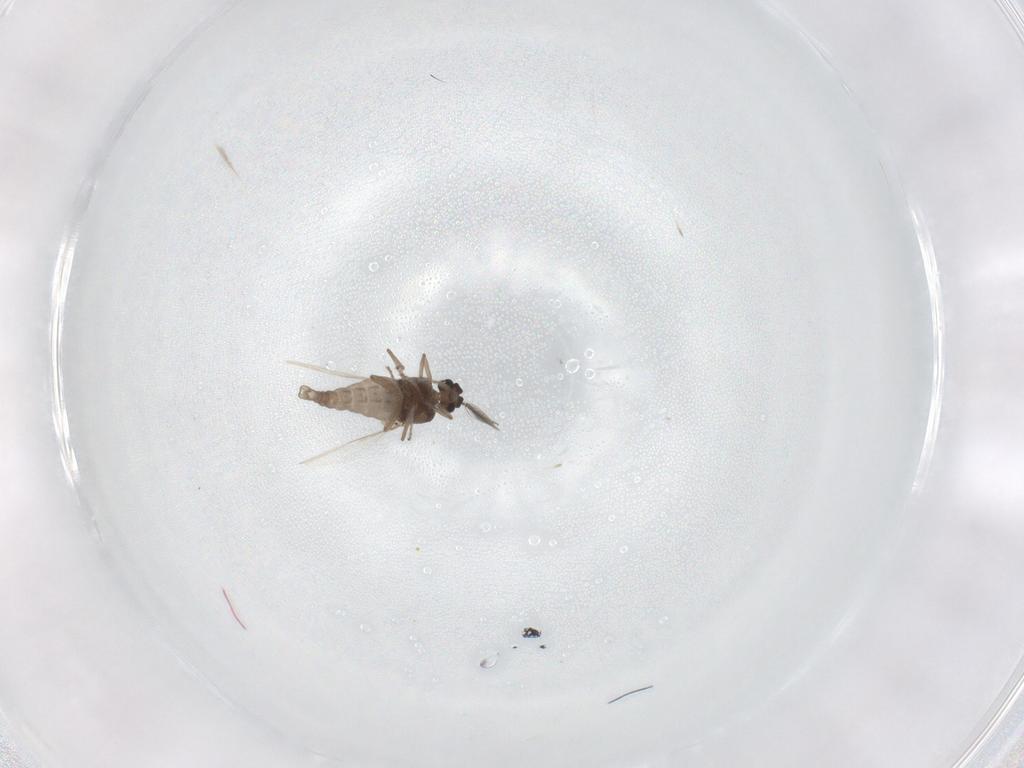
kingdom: Animalia
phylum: Arthropoda
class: Insecta
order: Diptera
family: Ceratopogonidae
